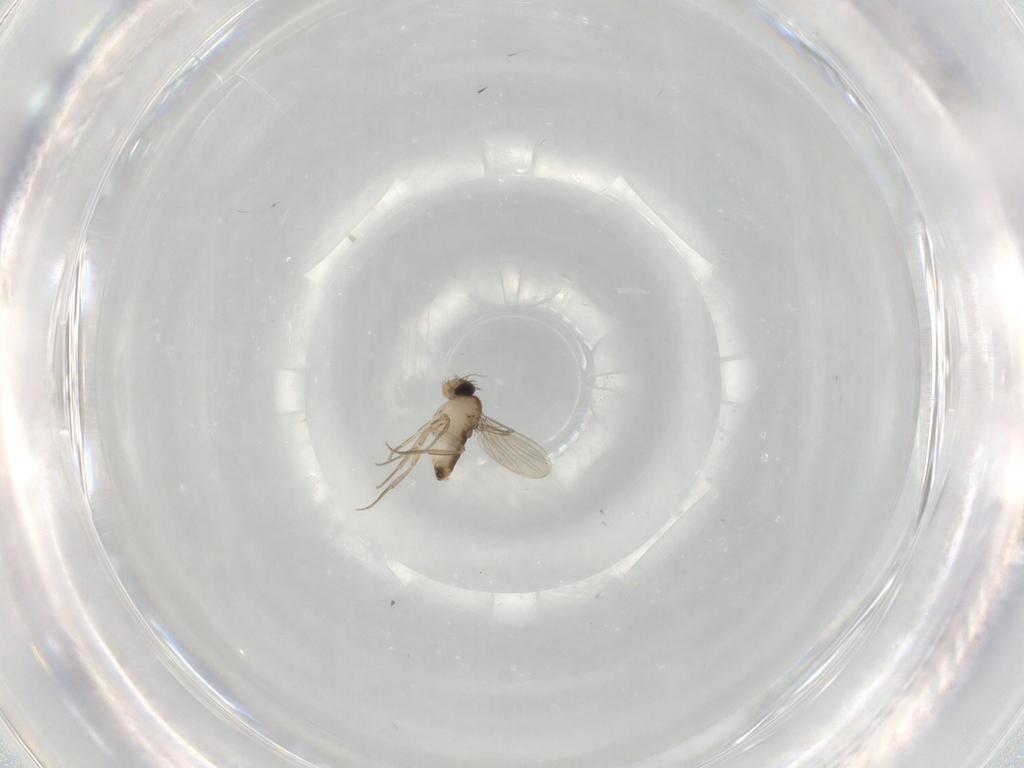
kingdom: Animalia
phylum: Arthropoda
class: Insecta
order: Diptera
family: Phoridae
